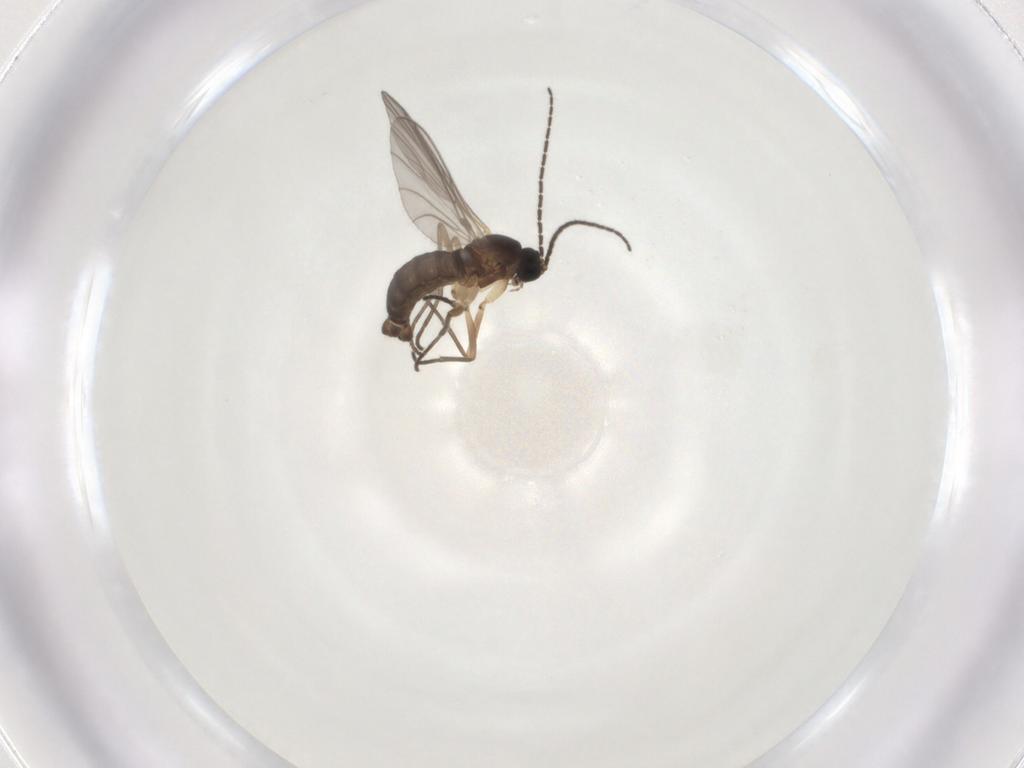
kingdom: Animalia
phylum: Arthropoda
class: Insecta
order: Diptera
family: Sciaridae
